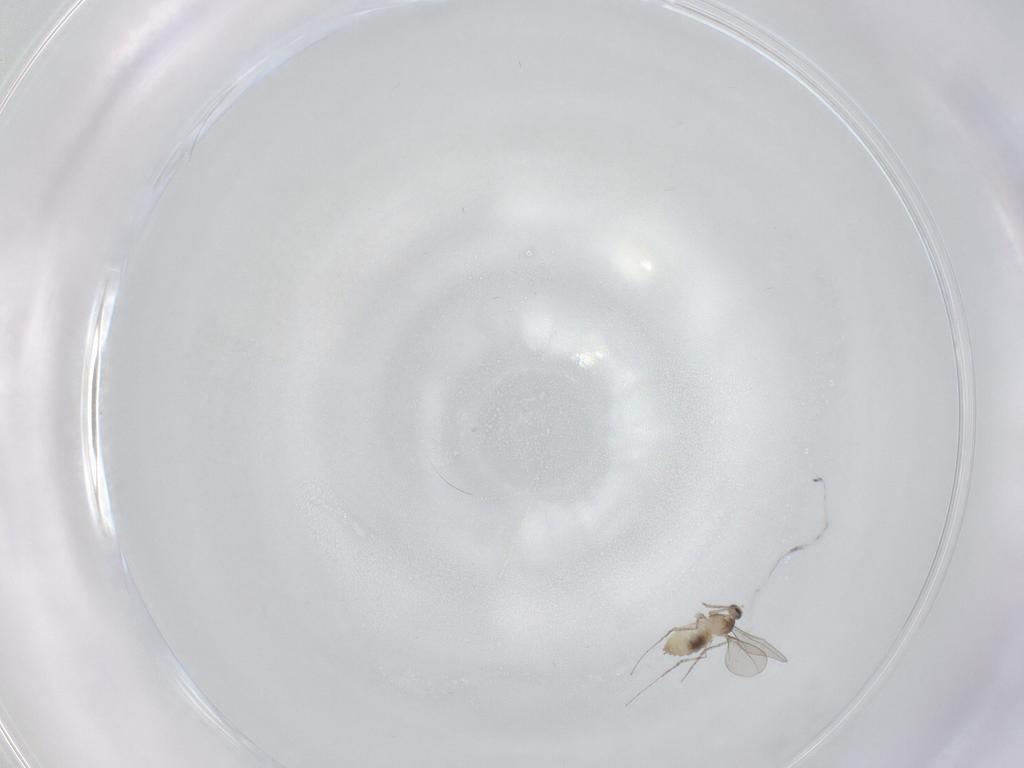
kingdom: Animalia
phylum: Arthropoda
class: Insecta
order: Diptera
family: Cecidomyiidae
